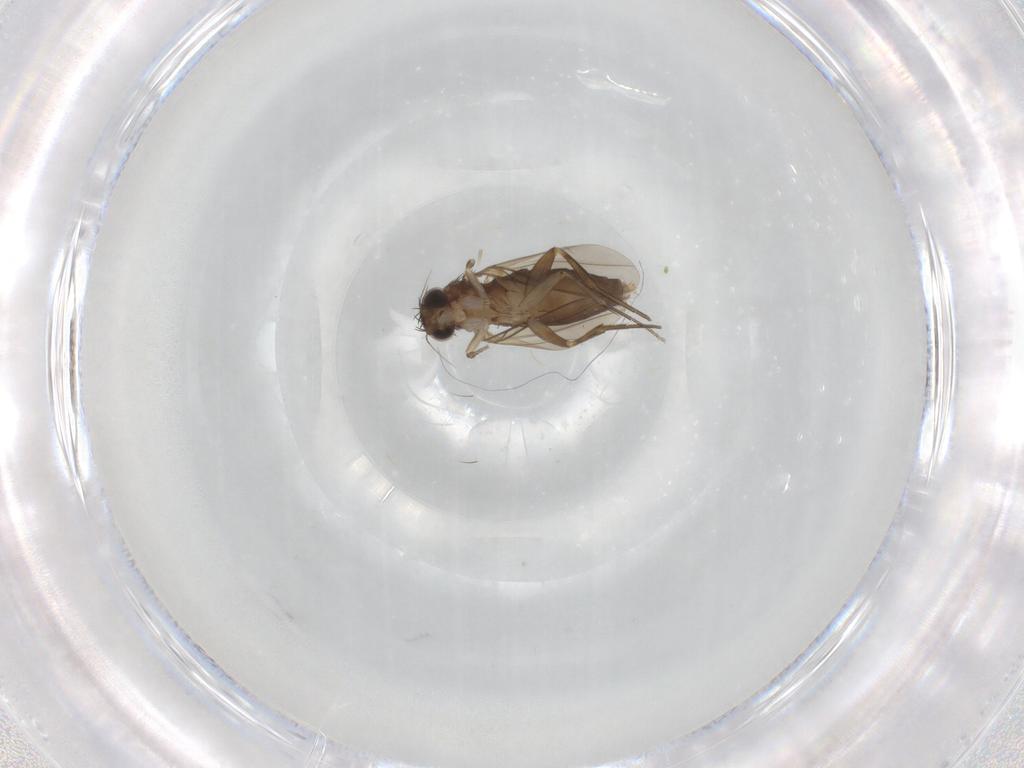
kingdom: Animalia
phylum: Arthropoda
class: Insecta
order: Diptera
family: Phoridae
